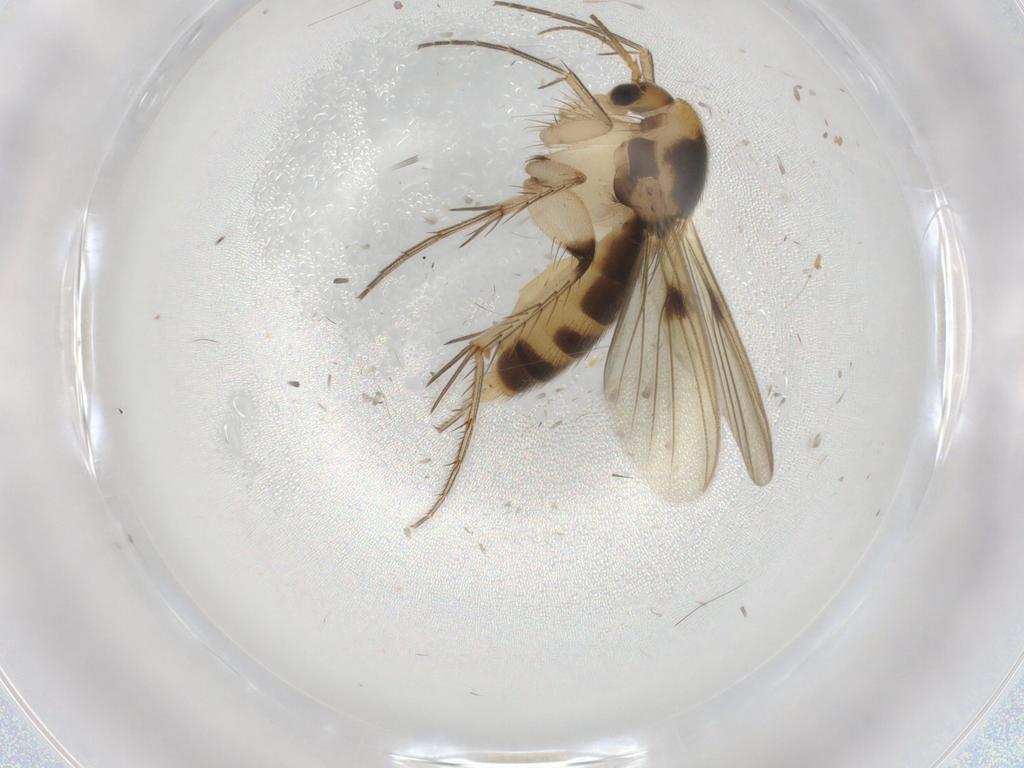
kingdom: Animalia
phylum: Arthropoda
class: Insecta
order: Diptera
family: Mycetophilidae
